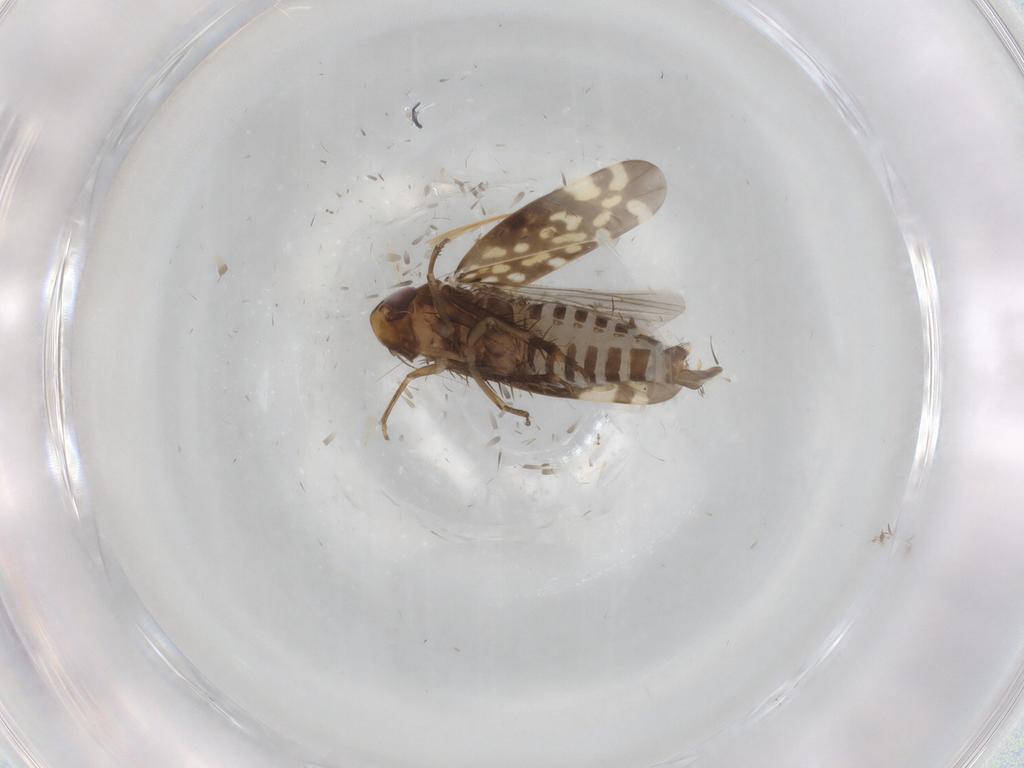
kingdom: Animalia
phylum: Arthropoda
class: Insecta
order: Hemiptera
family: Cicadellidae
